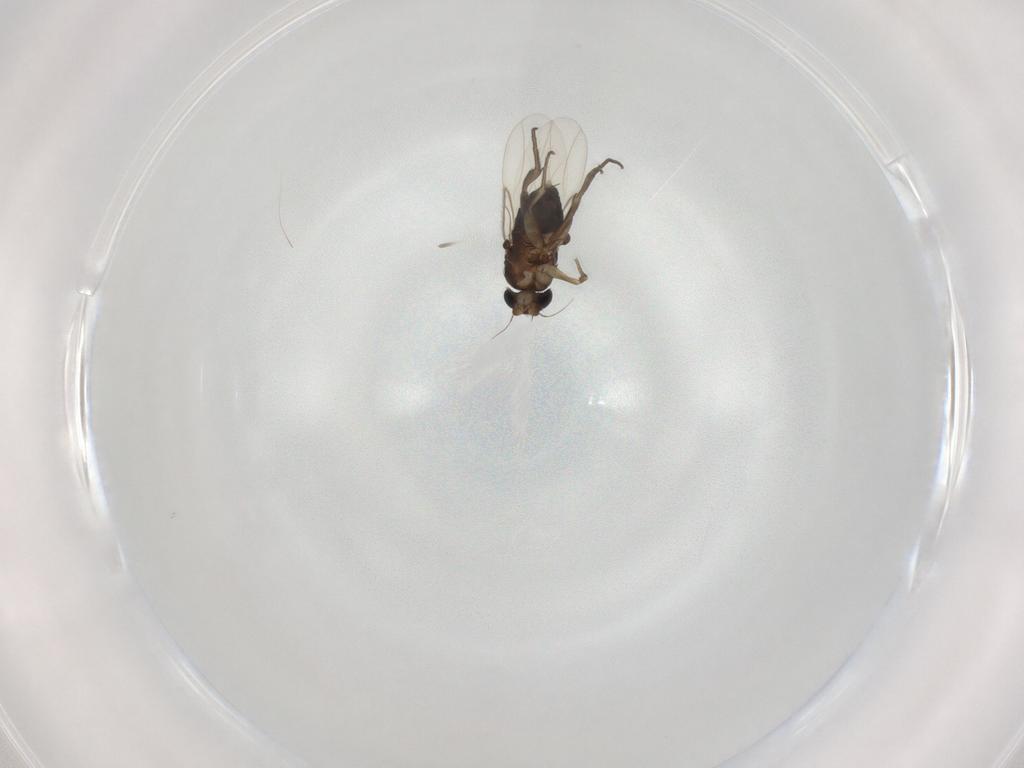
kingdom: Animalia
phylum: Arthropoda
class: Insecta
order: Diptera
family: Phoridae
